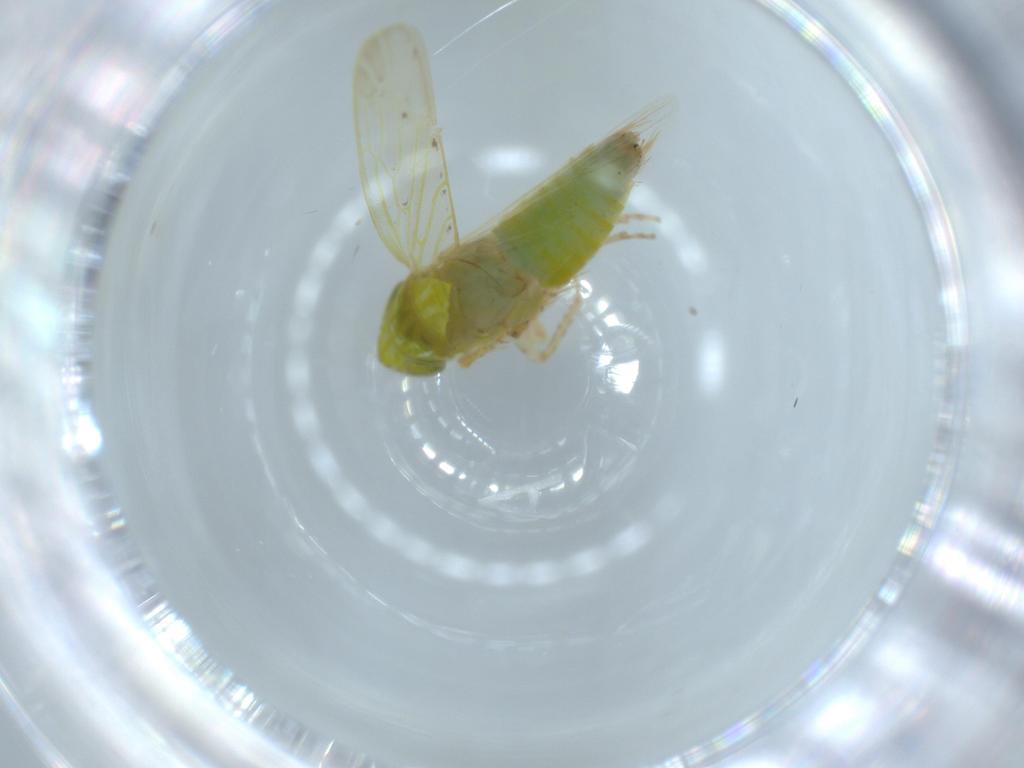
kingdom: Animalia
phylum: Arthropoda
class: Insecta
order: Hemiptera
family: Cicadellidae
